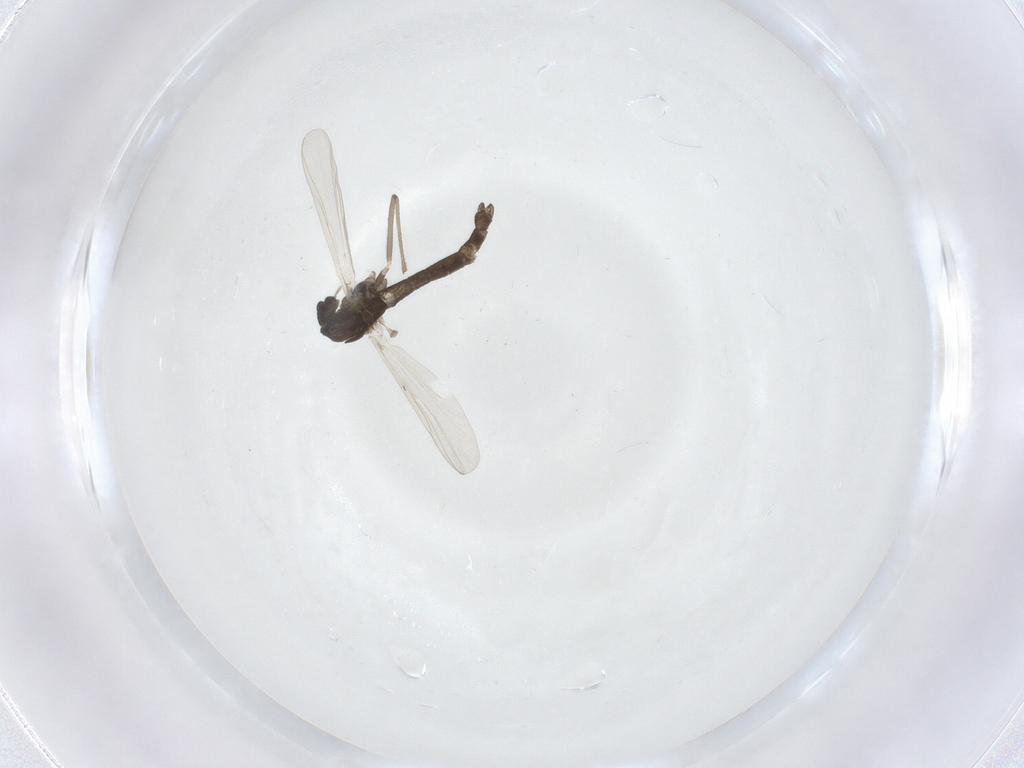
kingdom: Animalia
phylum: Arthropoda
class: Insecta
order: Diptera
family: Chironomidae
